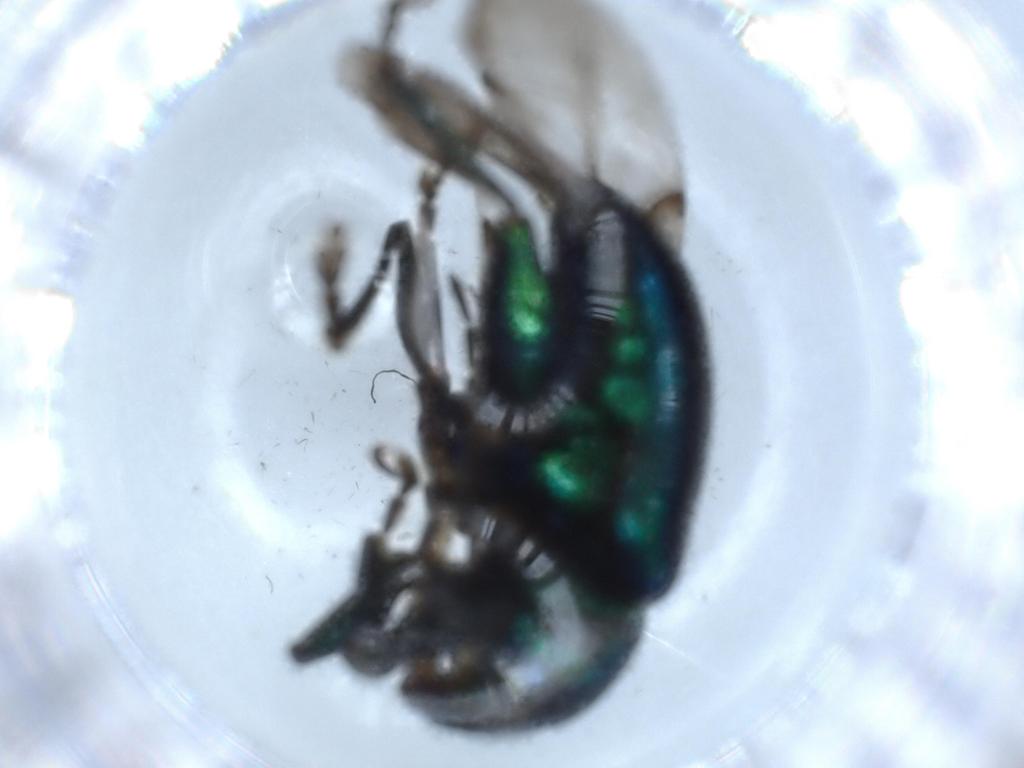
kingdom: Animalia
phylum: Arthropoda
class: Insecta
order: Coleoptera
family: Chrysomelidae
